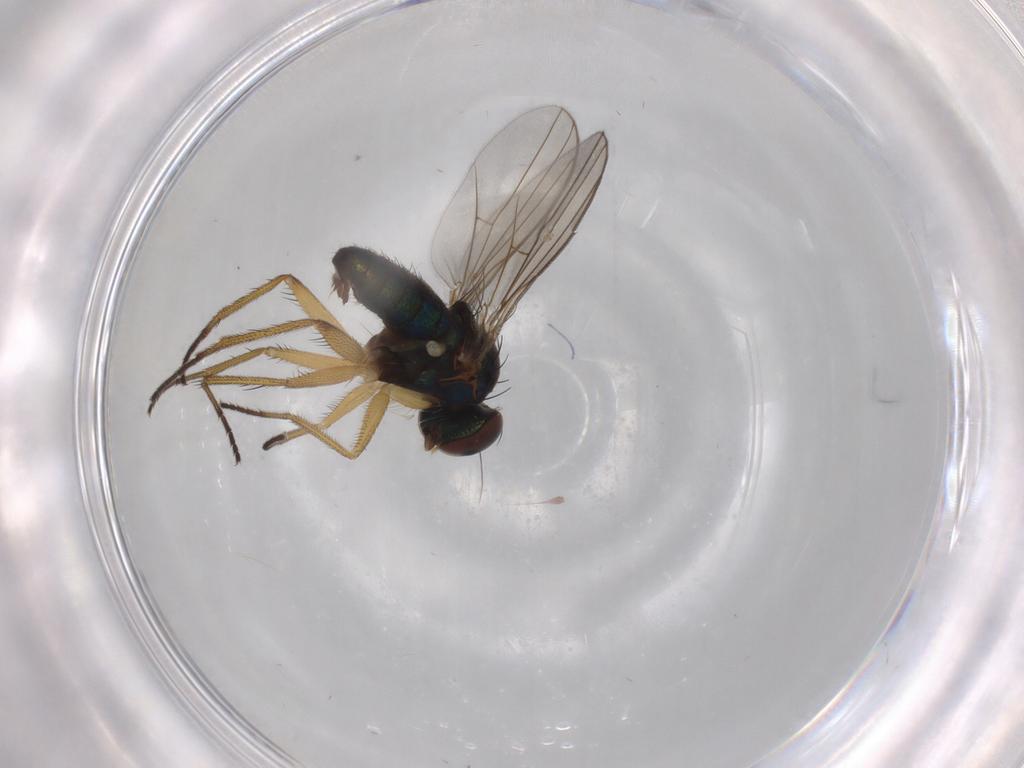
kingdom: Animalia
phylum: Arthropoda
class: Insecta
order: Diptera
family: Dolichopodidae
